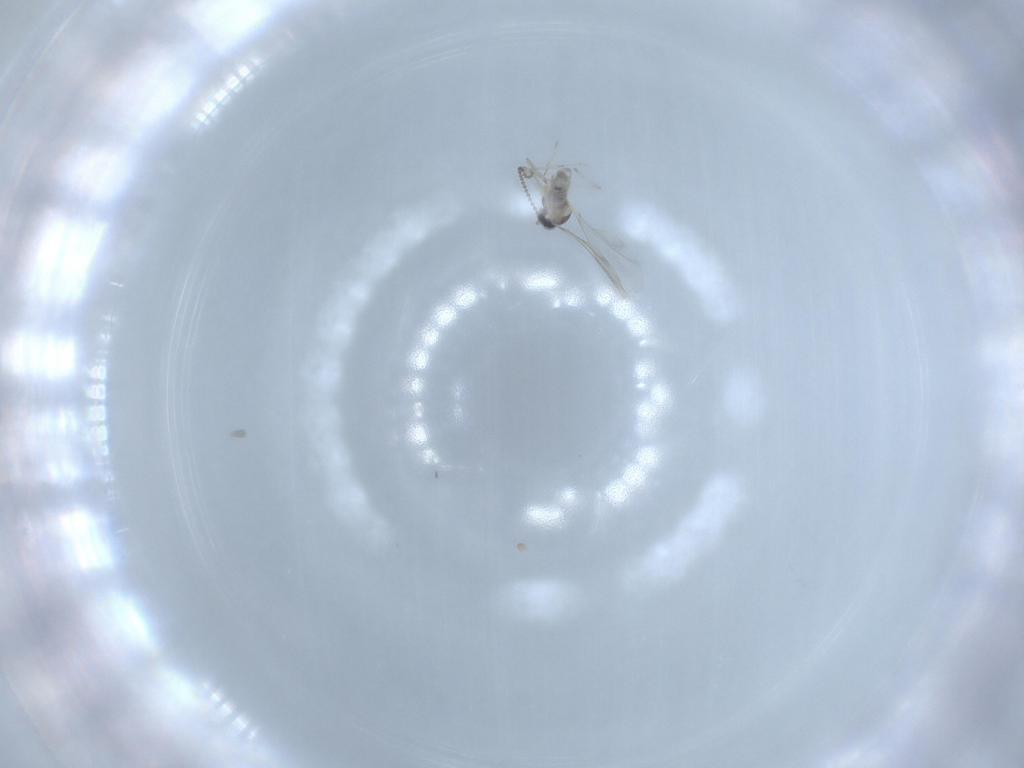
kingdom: Animalia
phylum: Arthropoda
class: Insecta
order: Diptera
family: Cecidomyiidae
